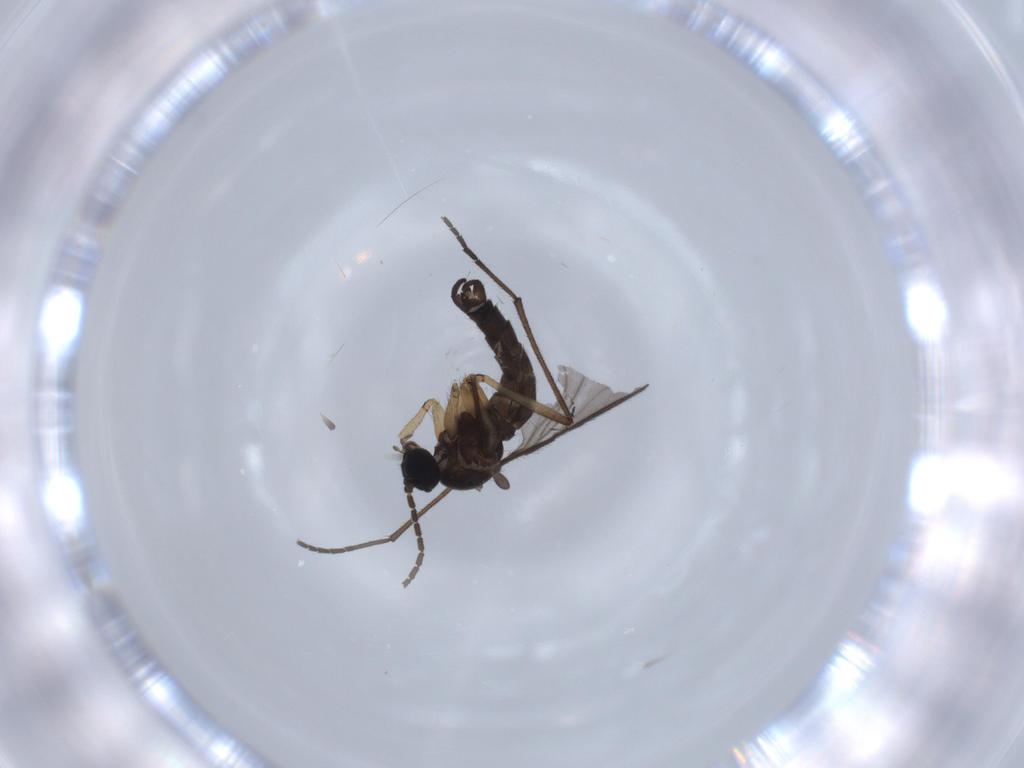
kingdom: Animalia
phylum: Arthropoda
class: Insecta
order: Diptera
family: Sciaridae
